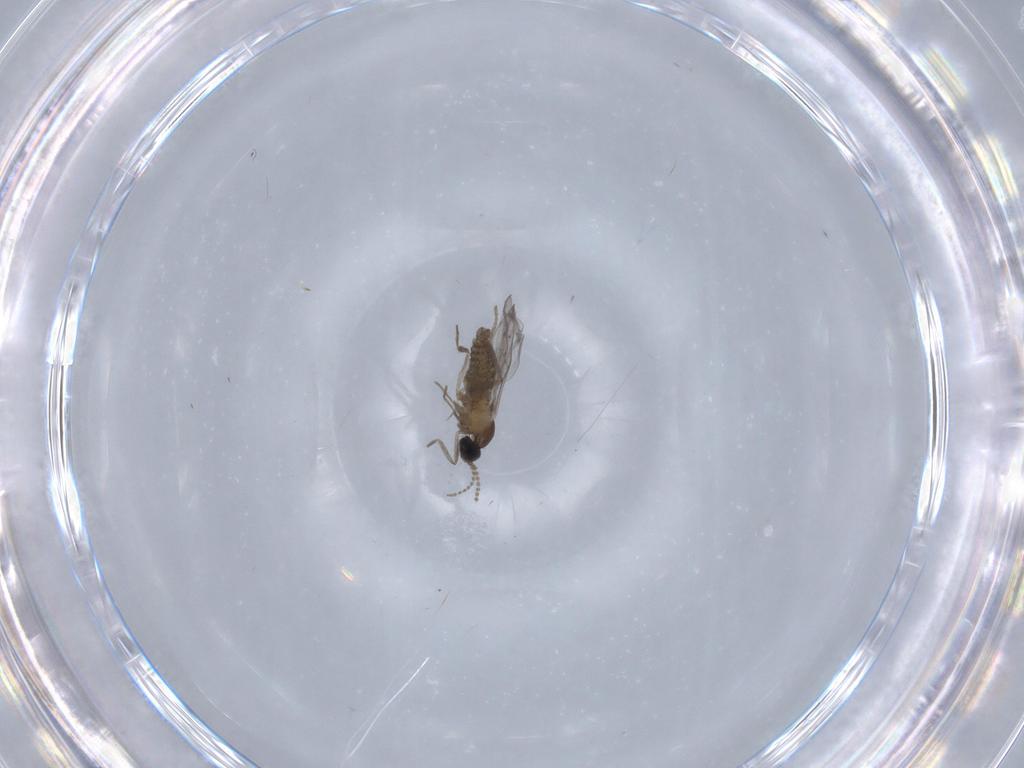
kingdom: Animalia
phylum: Arthropoda
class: Insecta
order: Diptera
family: Dolichopodidae
